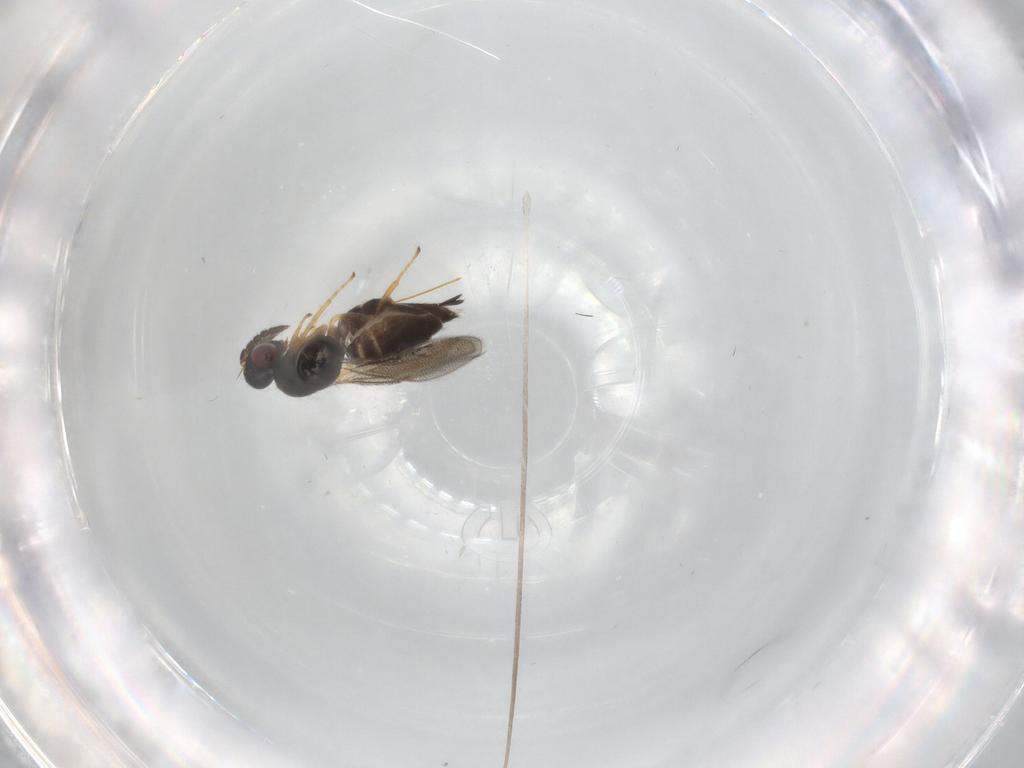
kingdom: Animalia
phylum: Arthropoda
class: Insecta
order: Hymenoptera
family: Eulophidae
